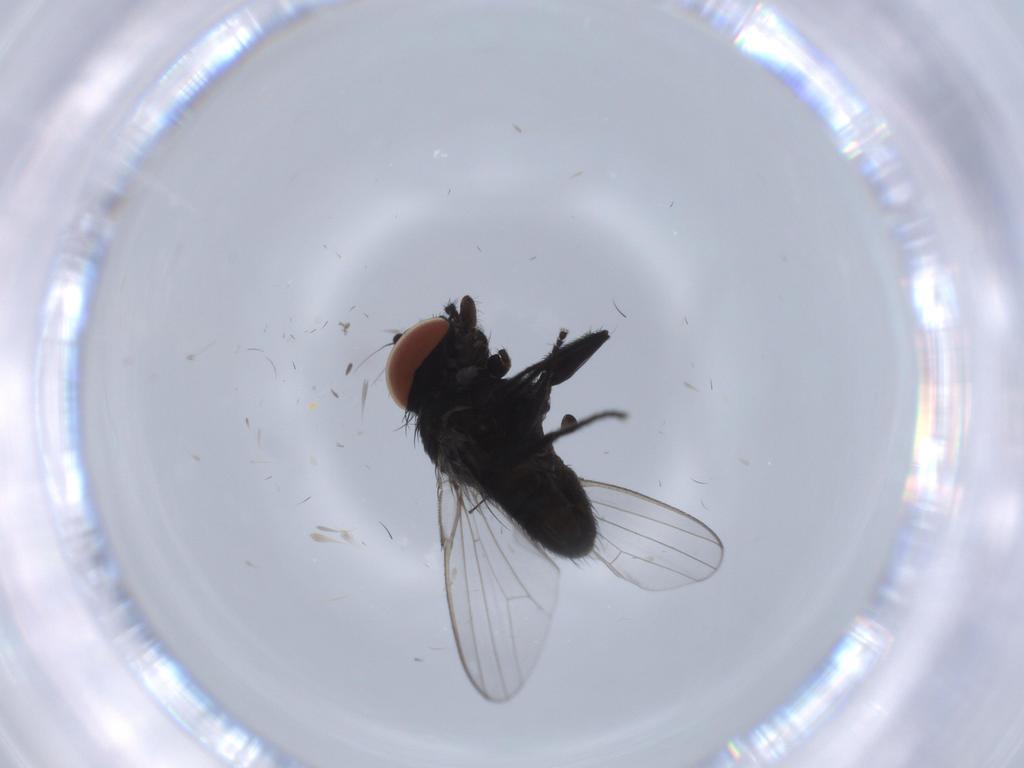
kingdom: Animalia
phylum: Arthropoda
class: Insecta
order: Diptera
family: Milichiidae
